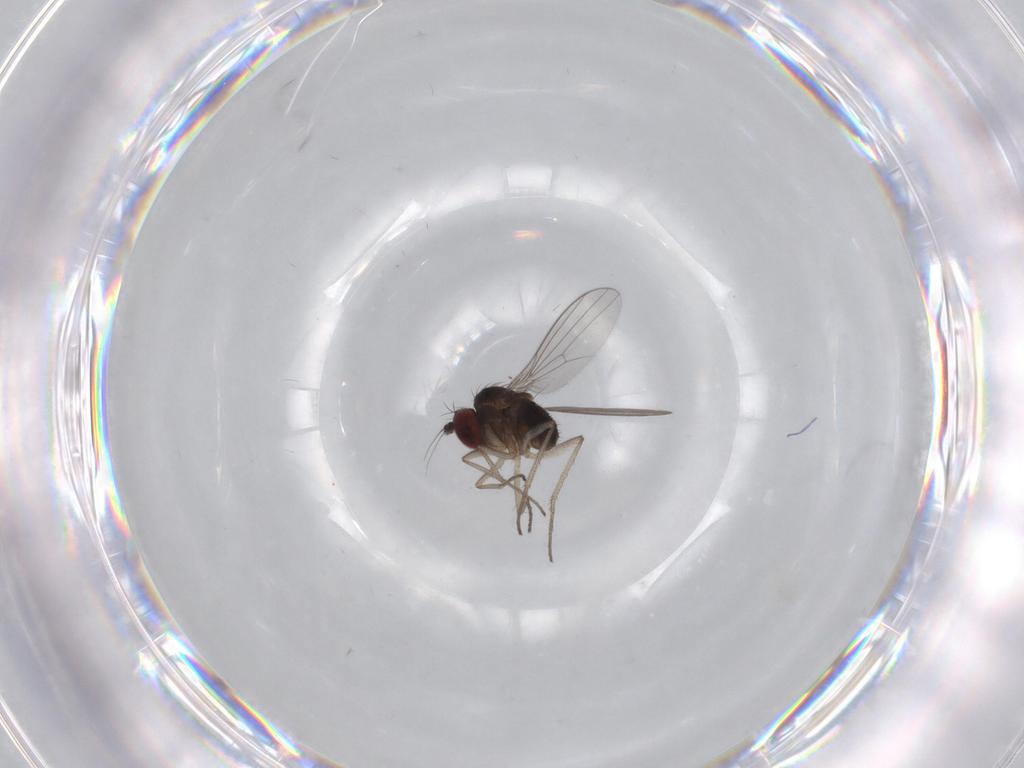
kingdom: Animalia
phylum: Arthropoda
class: Insecta
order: Diptera
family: Dolichopodidae
